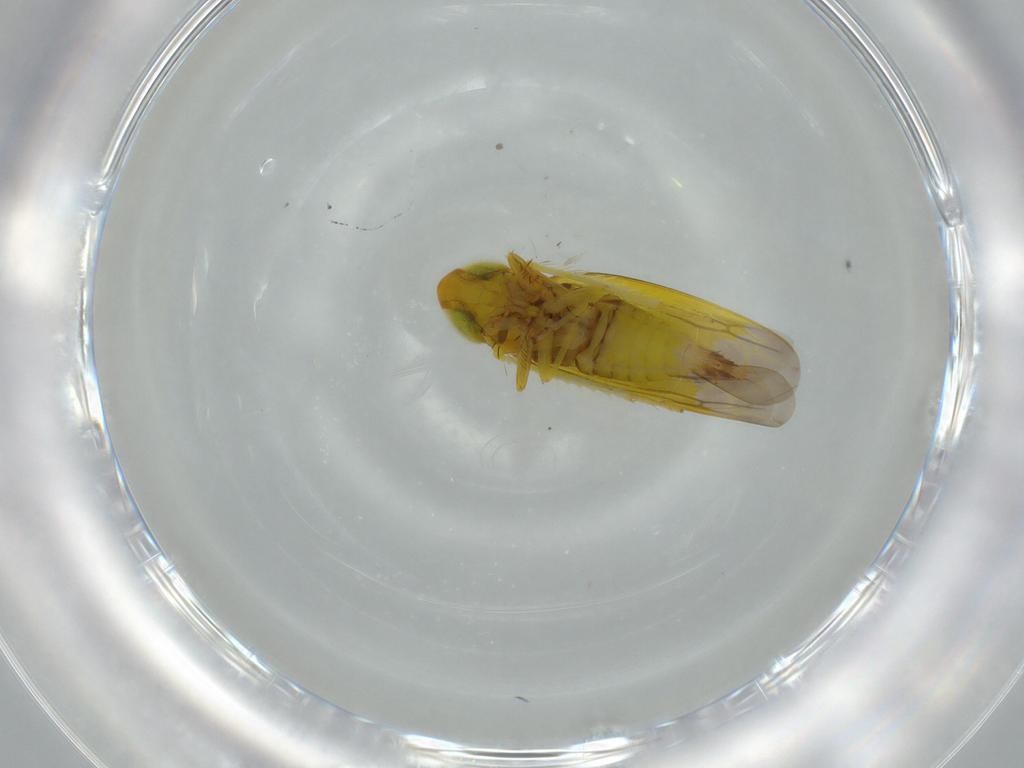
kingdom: Animalia
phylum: Arthropoda
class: Insecta
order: Hemiptera
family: Cicadellidae
